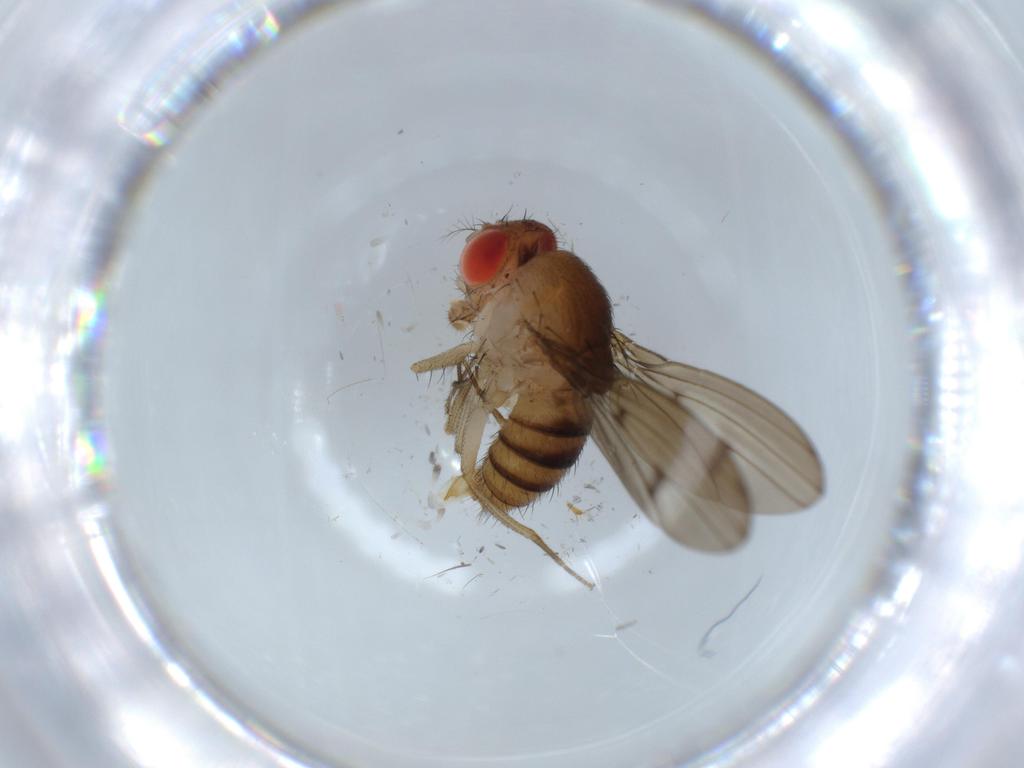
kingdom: Animalia
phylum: Arthropoda
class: Insecta
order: Diptera
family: Drosophilidae
